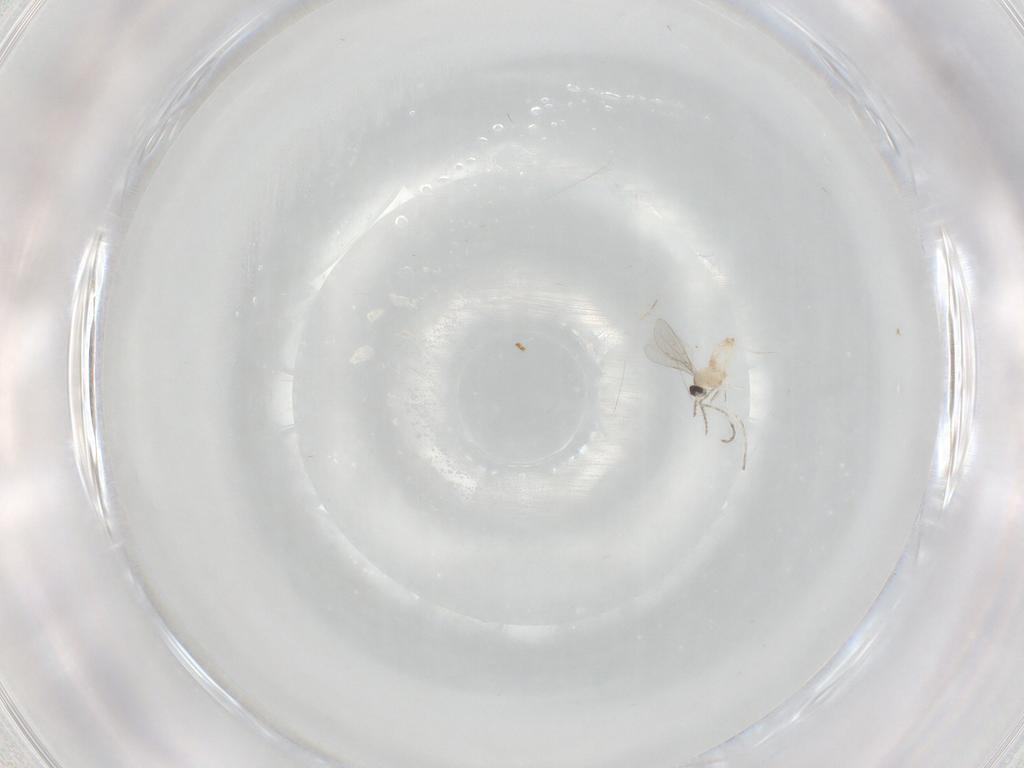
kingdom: Animalia
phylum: Arthropoda
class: Insecta
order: Diptera
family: Cecidomyiidae
